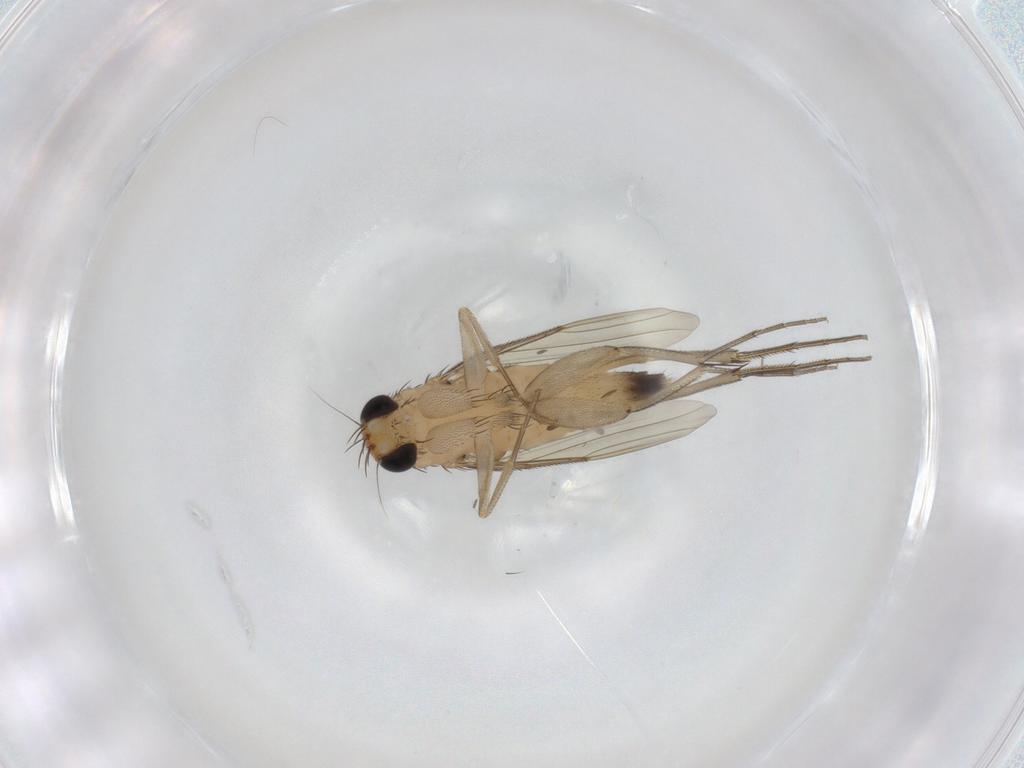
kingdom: Animalia
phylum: Arthropoda
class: Insecta
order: Diptera
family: Phoridae
